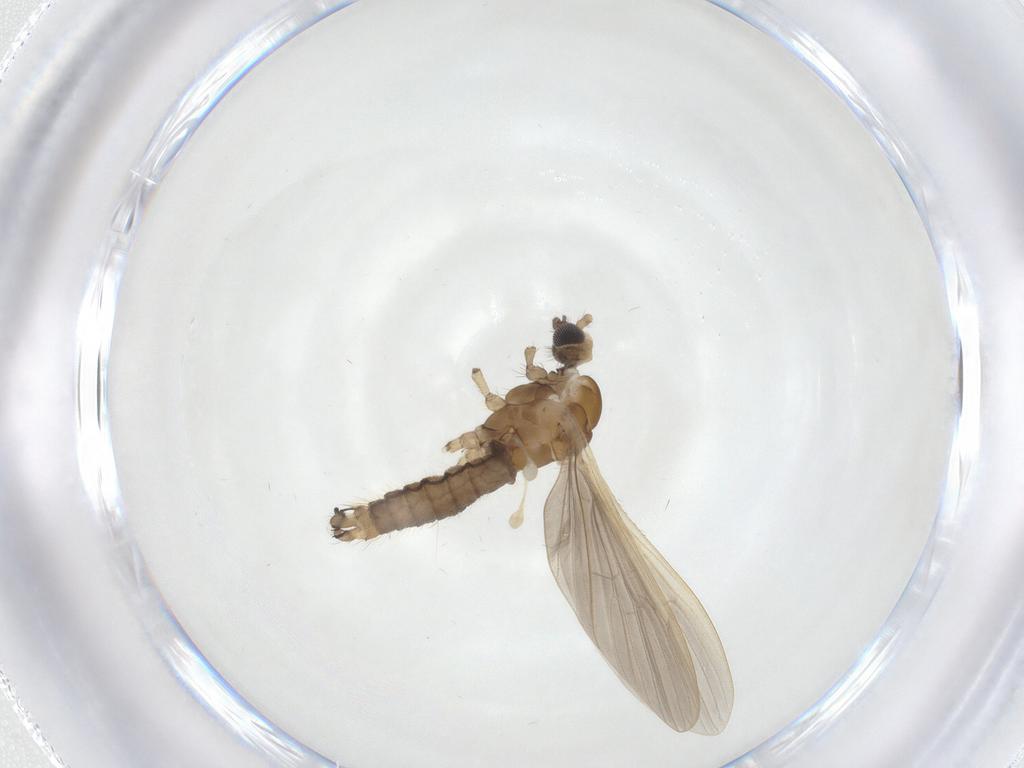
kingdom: Animalia
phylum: Arthropoda
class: Insecta
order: Diptera
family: Limoniidae
